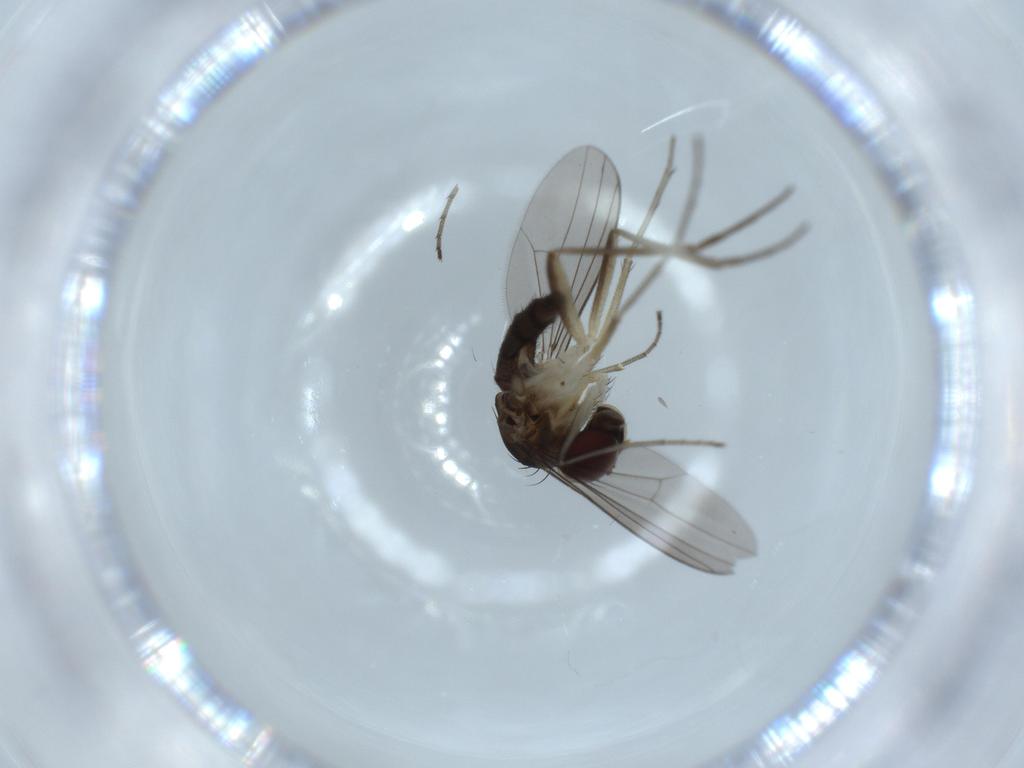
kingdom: Animalia
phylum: Arthropoda
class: Insecta
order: Diptera
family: Dolichopodidae
